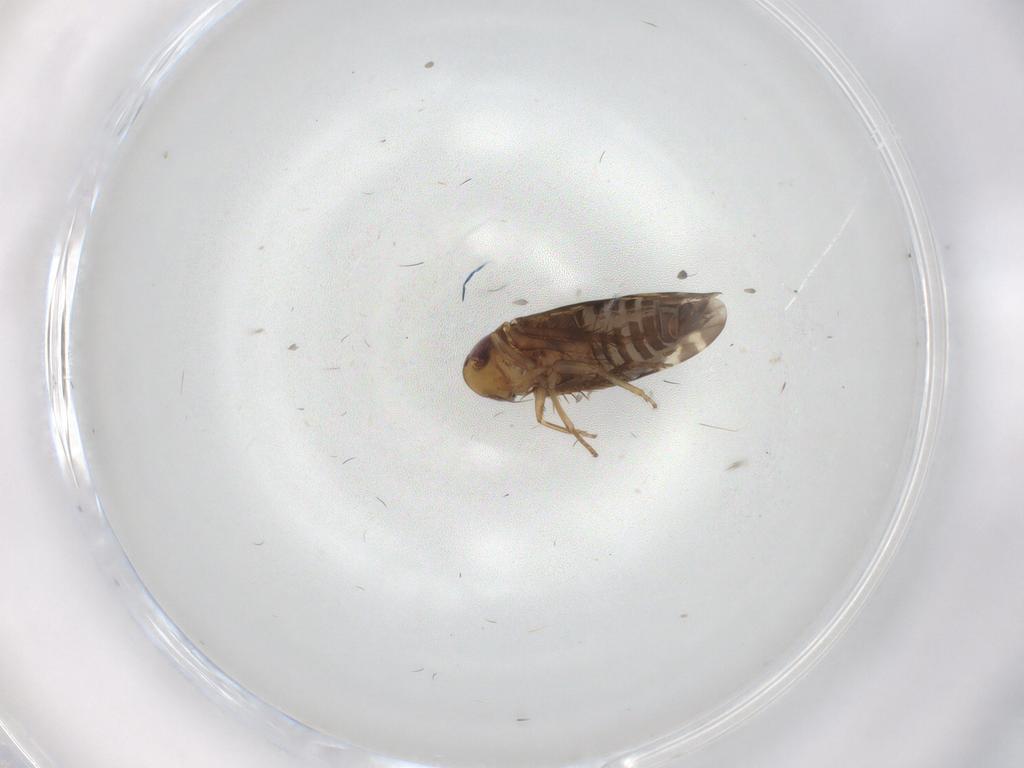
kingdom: Animalia
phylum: Arthropoda
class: Insecta
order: Hemiptera
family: Cicadellidae
